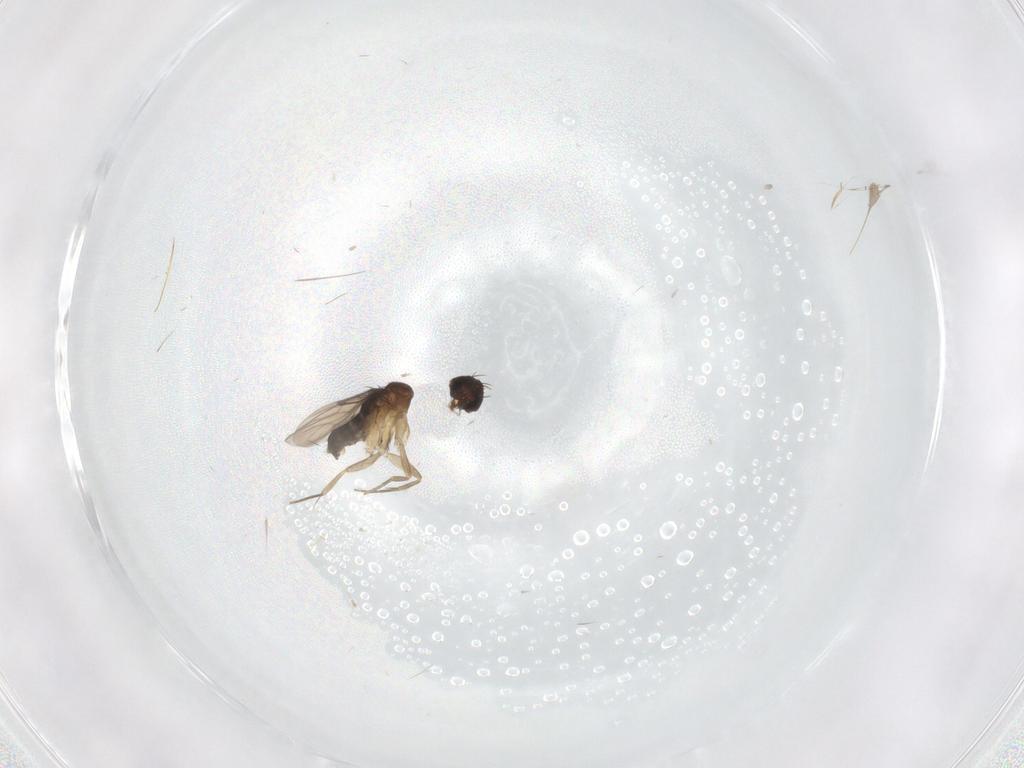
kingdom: Animalia
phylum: Arthropoda
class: Insecta
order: Diptera
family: Phoridae
